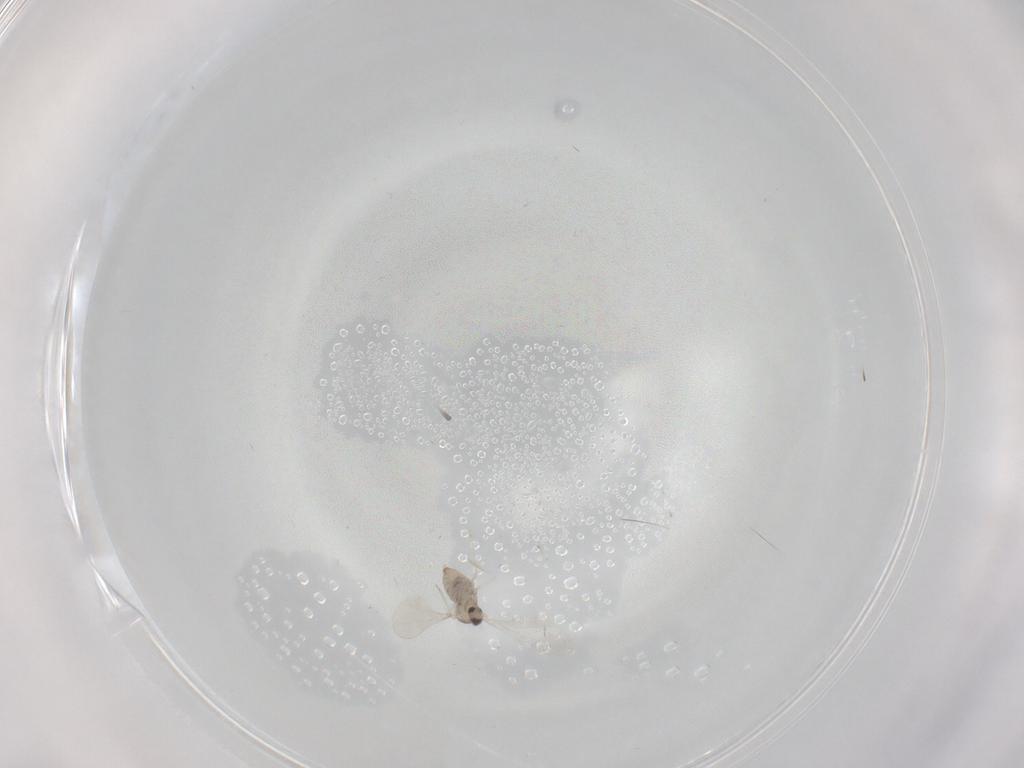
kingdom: Animalia
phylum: Arthropoda
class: Insecta
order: Diptera
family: Cecidomyiidae
